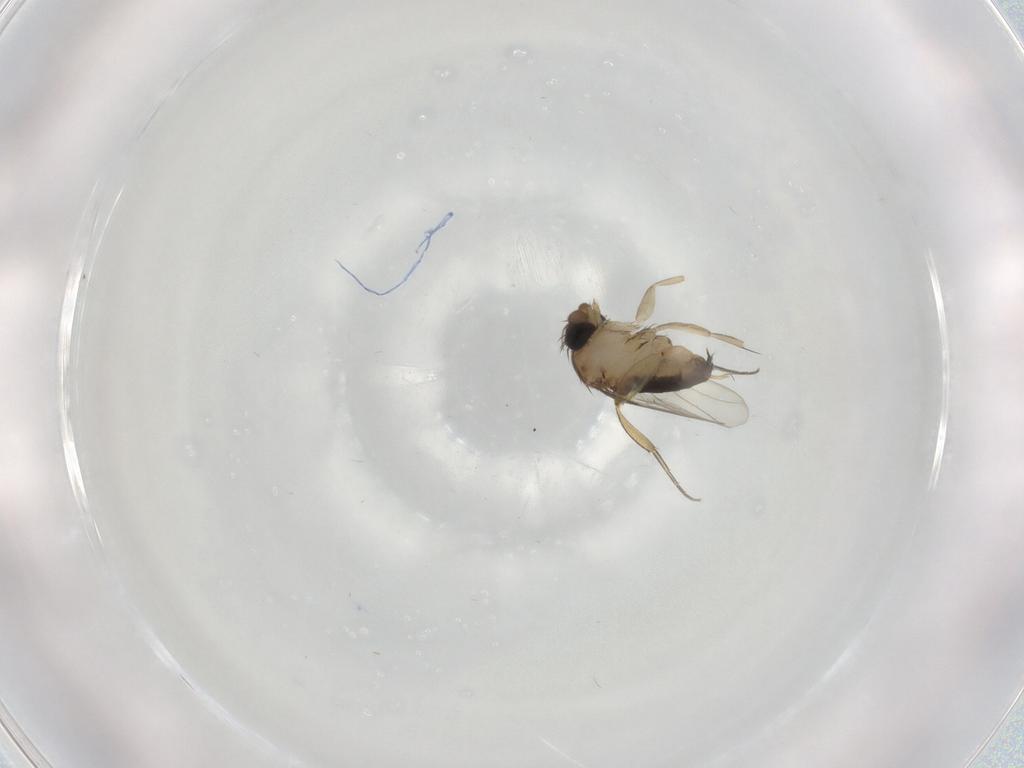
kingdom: Animalia
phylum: Arthropoda
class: Insecta
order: Diptera
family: Phoridae
